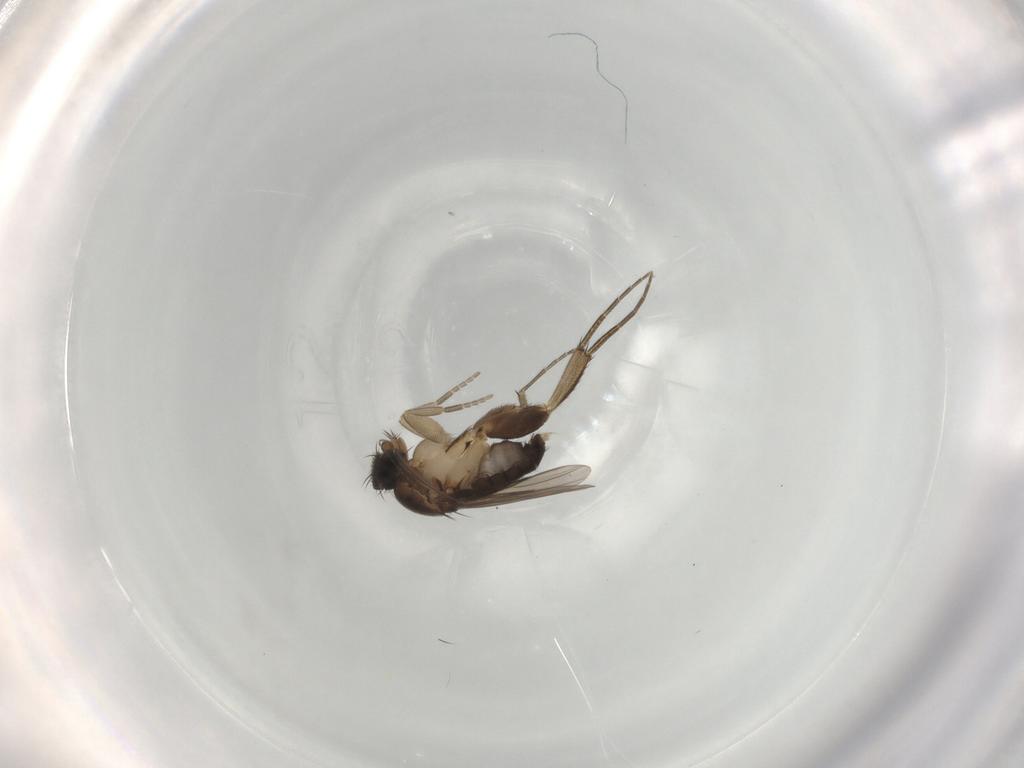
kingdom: Animalia
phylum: Arthropoda
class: Insecta
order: Diptera
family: Phoridae
